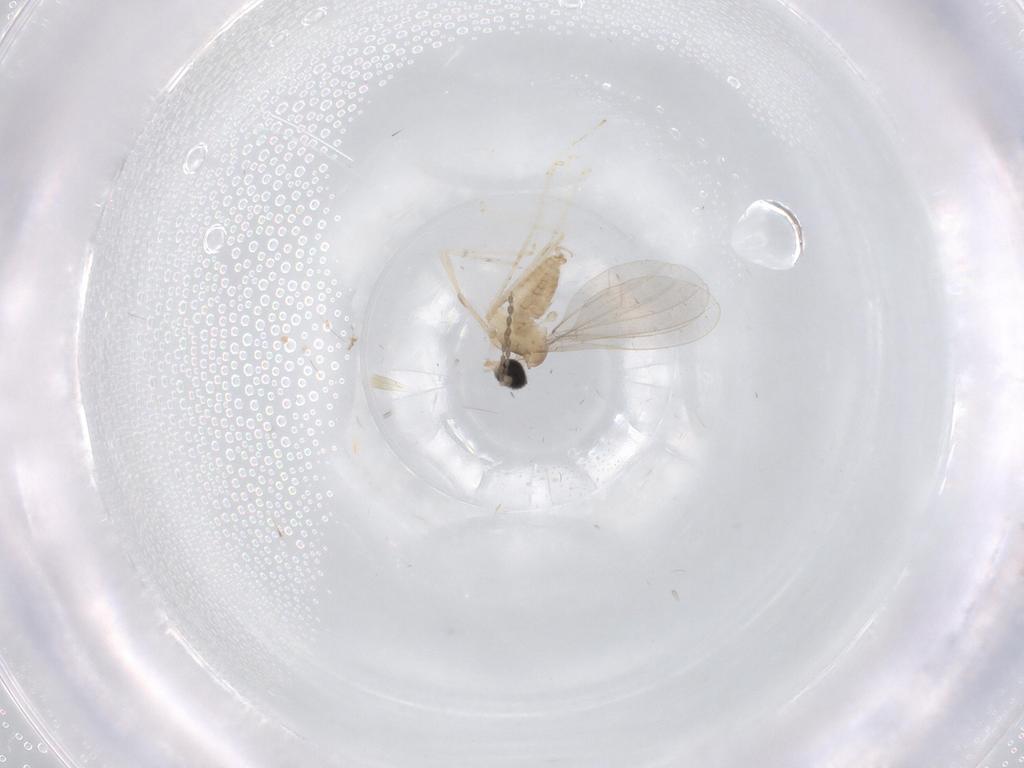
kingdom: Animalia
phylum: Arthropoda
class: Insecta
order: Diptera
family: Cecidomyiidae
